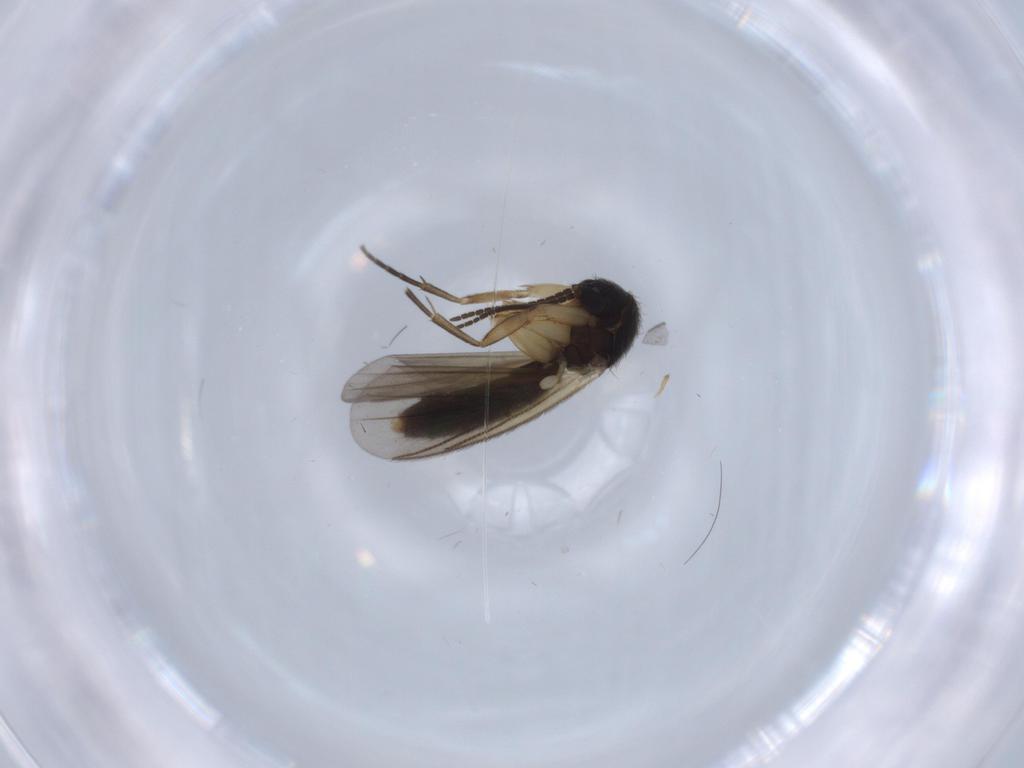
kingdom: Animalia
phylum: Arthropoda
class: Insecta
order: Diptera
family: Mycetophilidae
